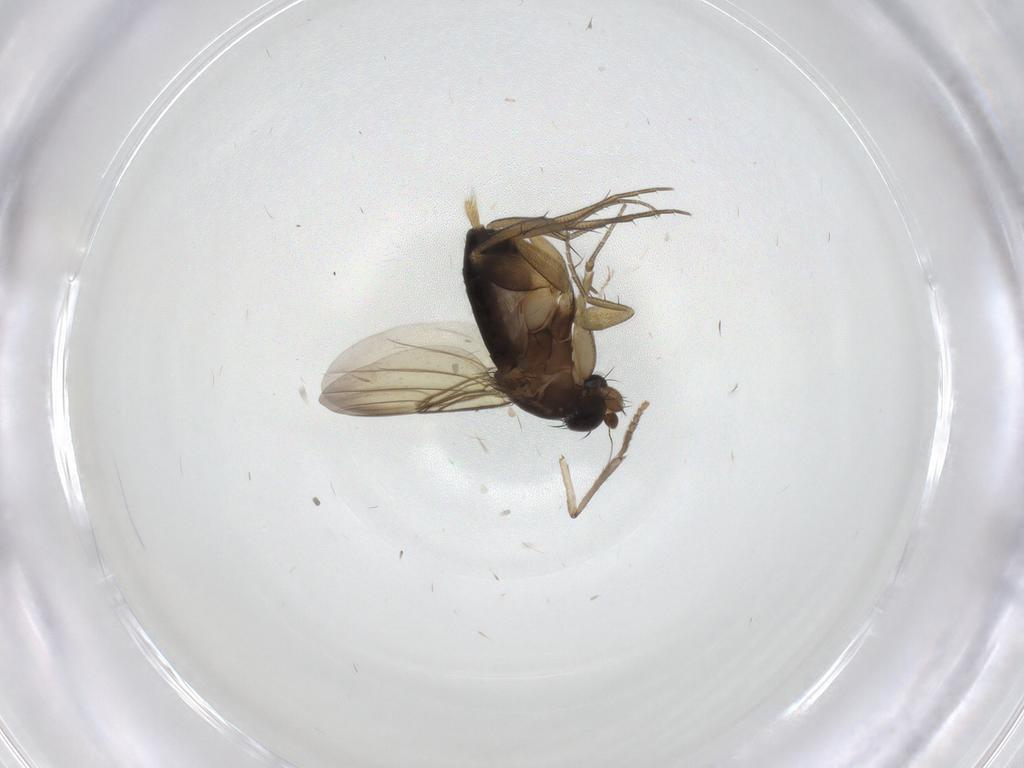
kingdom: Animalia
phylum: Arthropoda
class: Insecta
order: Diptera
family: Phoridae
